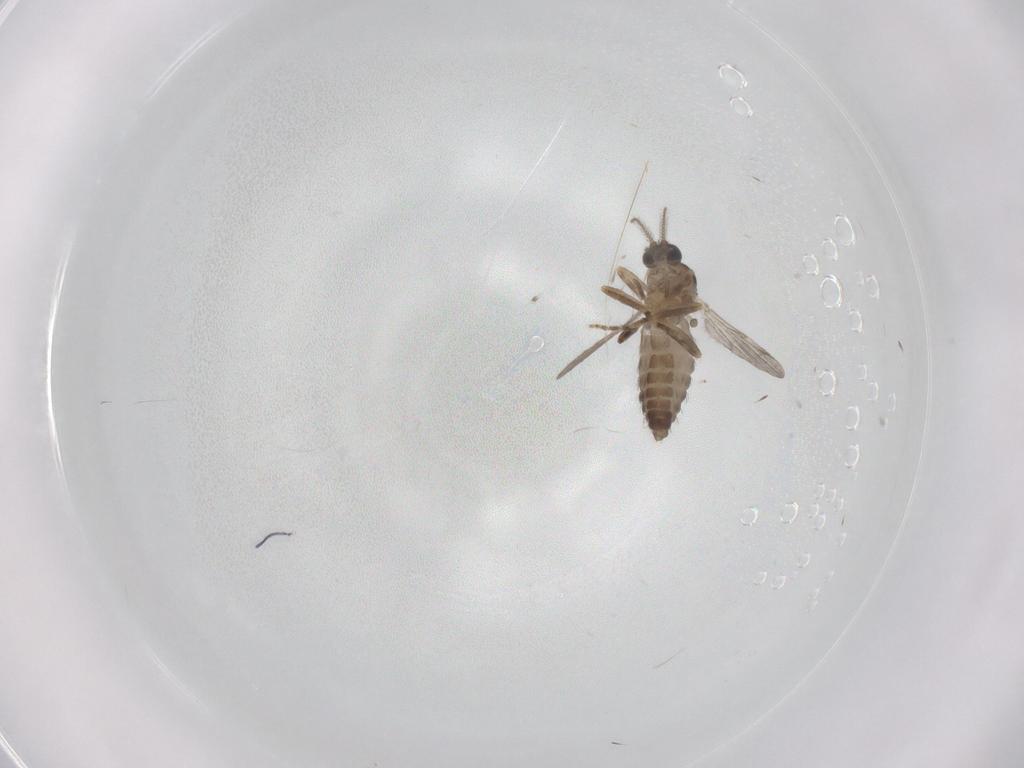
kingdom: Animalia
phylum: Arthropoda
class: Insecta
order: Diptera
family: Ceratopogonidae
